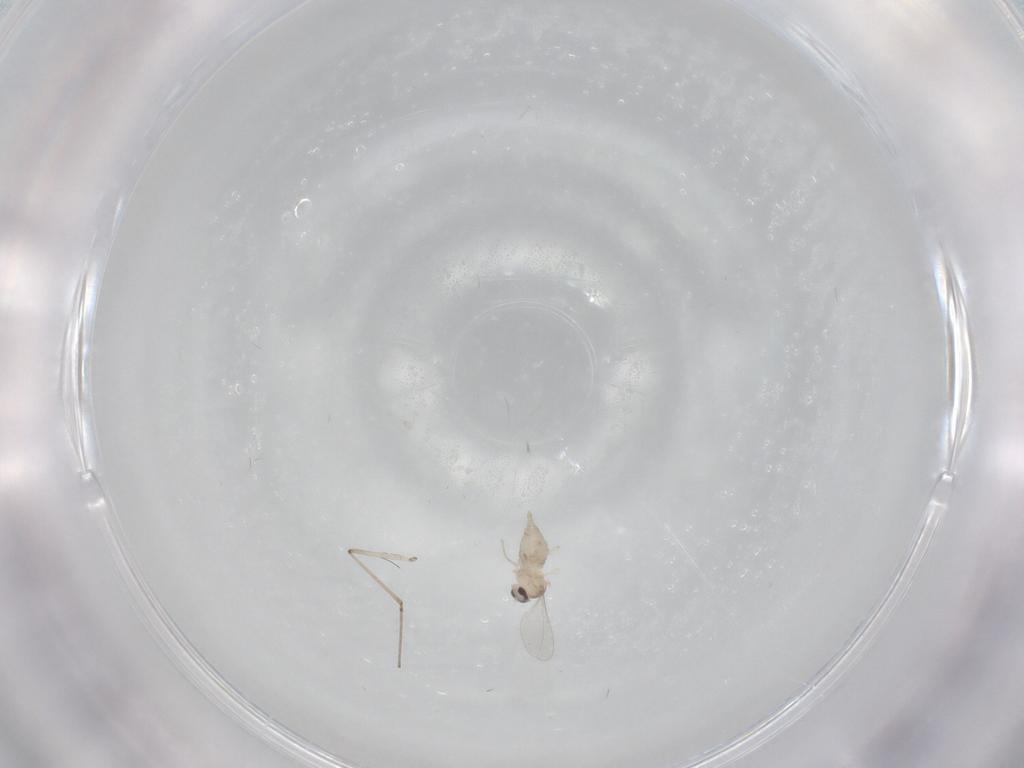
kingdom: Animalia
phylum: Arthropoda
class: Insecta
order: Diptera
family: Cecidomyiidae
